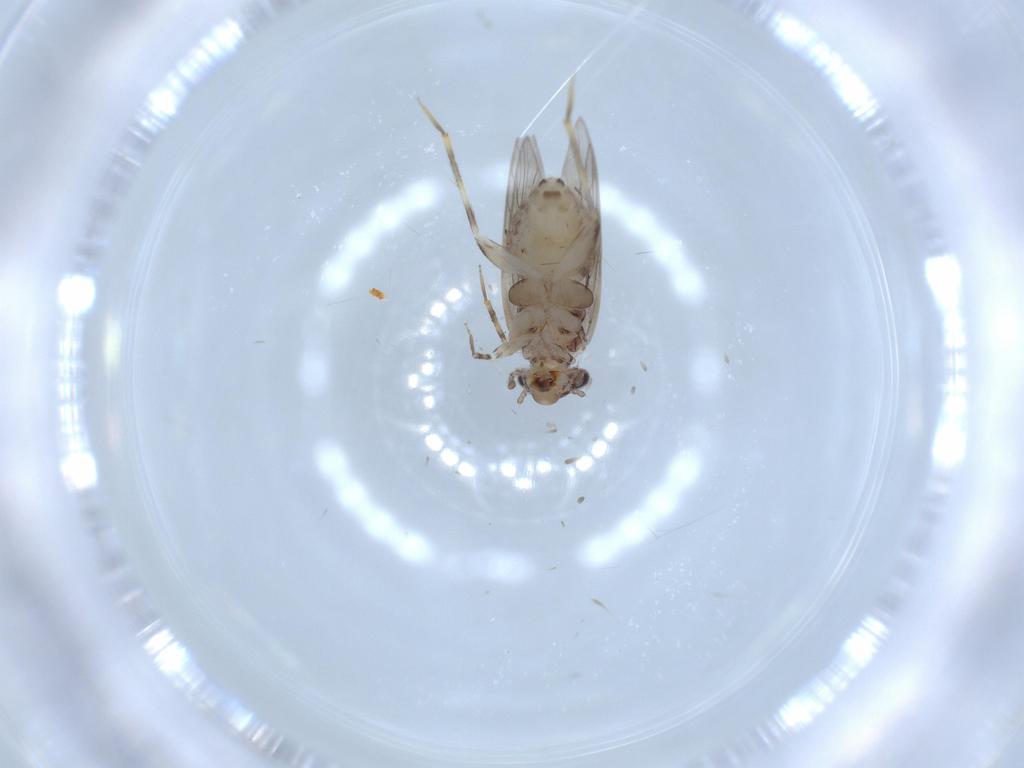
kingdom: Animalia
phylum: Arthropoda
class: Insecta
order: Psocodea
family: Lepidopsocidae
